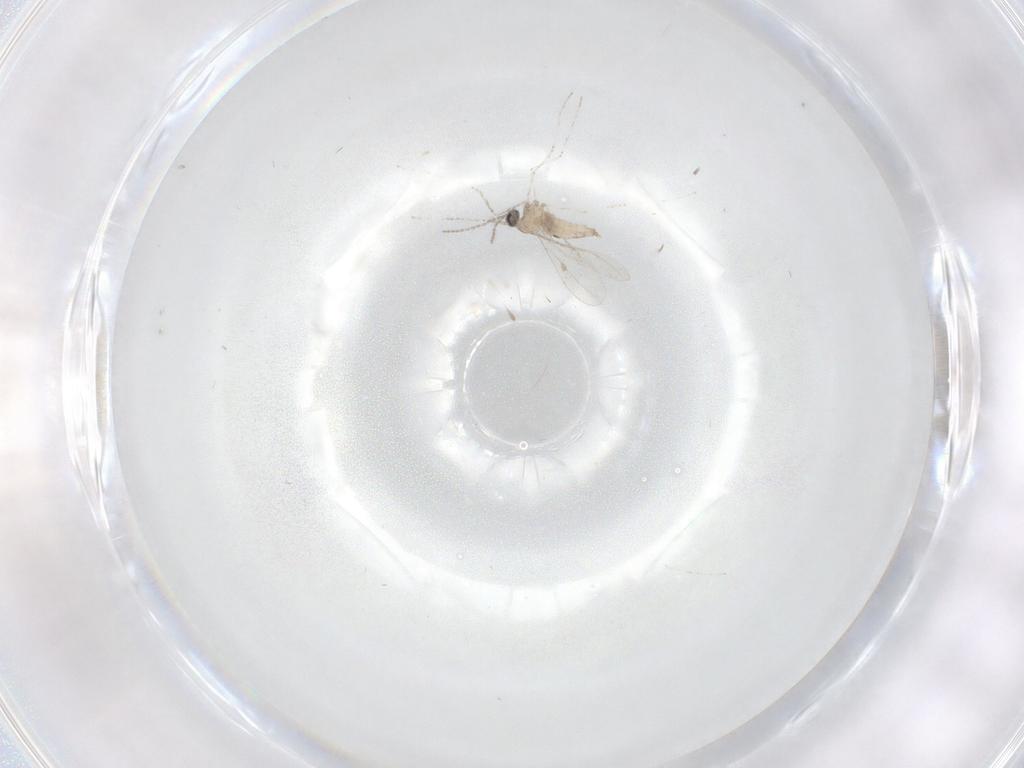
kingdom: Animalia
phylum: Arthropoda
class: Insecta
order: Diptera
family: Cecidomyiidae
